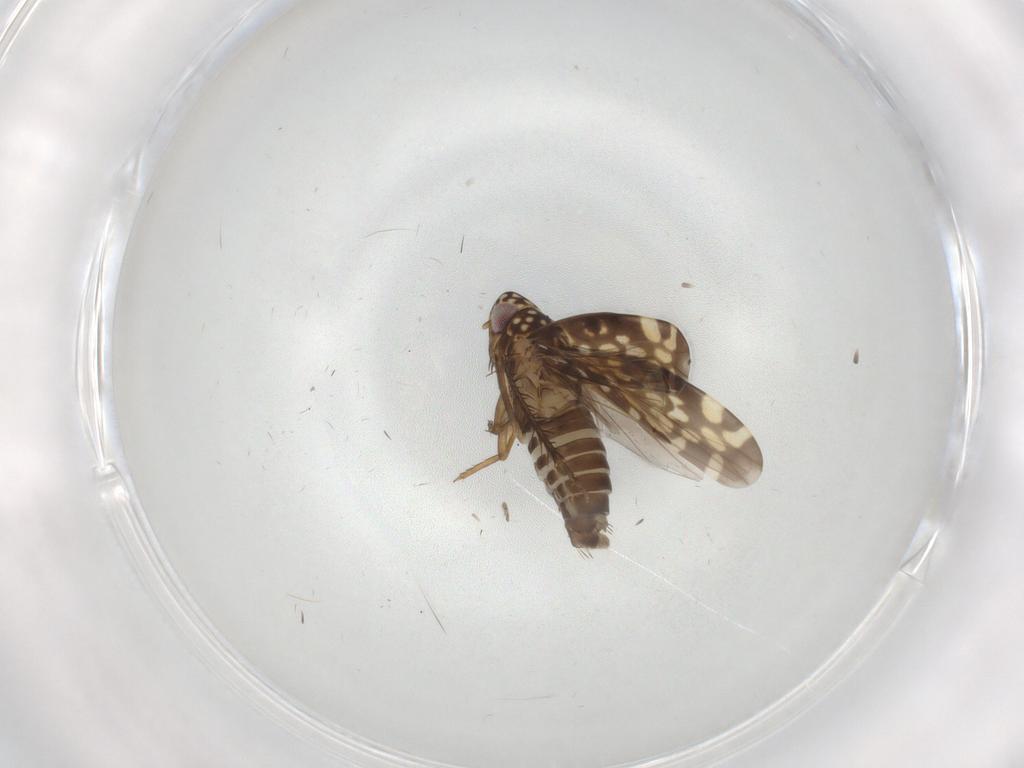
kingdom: Animalia
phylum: Arthropoda
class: Insecta
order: Hemiptera
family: Cicadellidae
